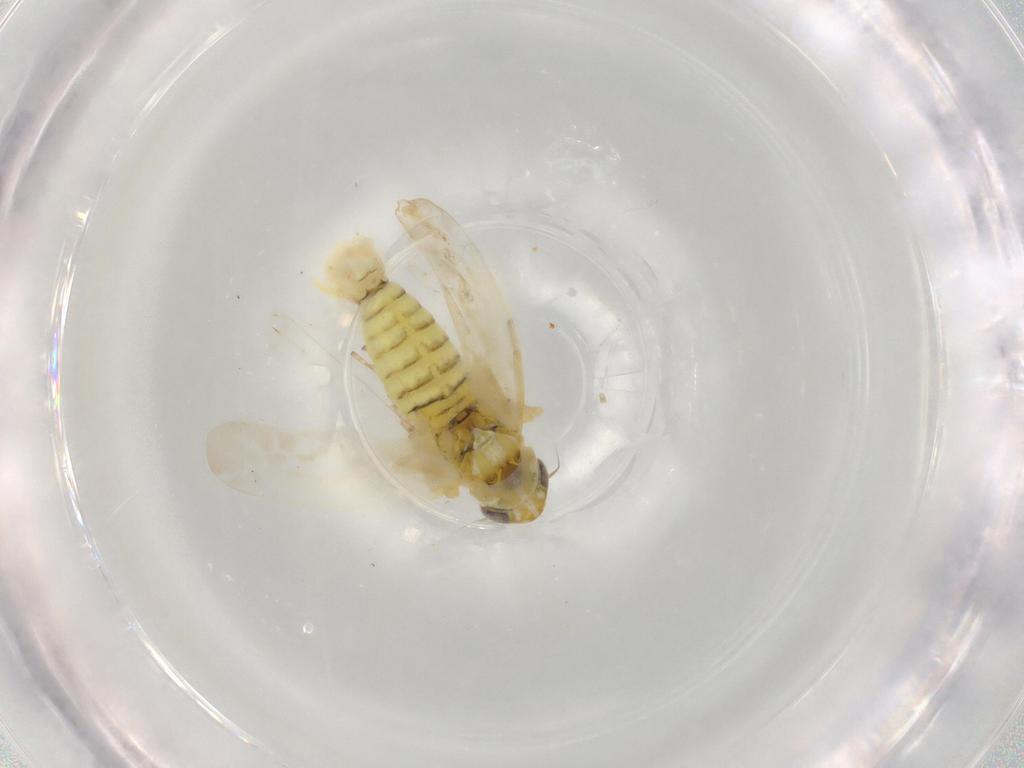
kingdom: Animalia
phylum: Arthropoda
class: Insecta
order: Hemiptera
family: Cicadellidae
